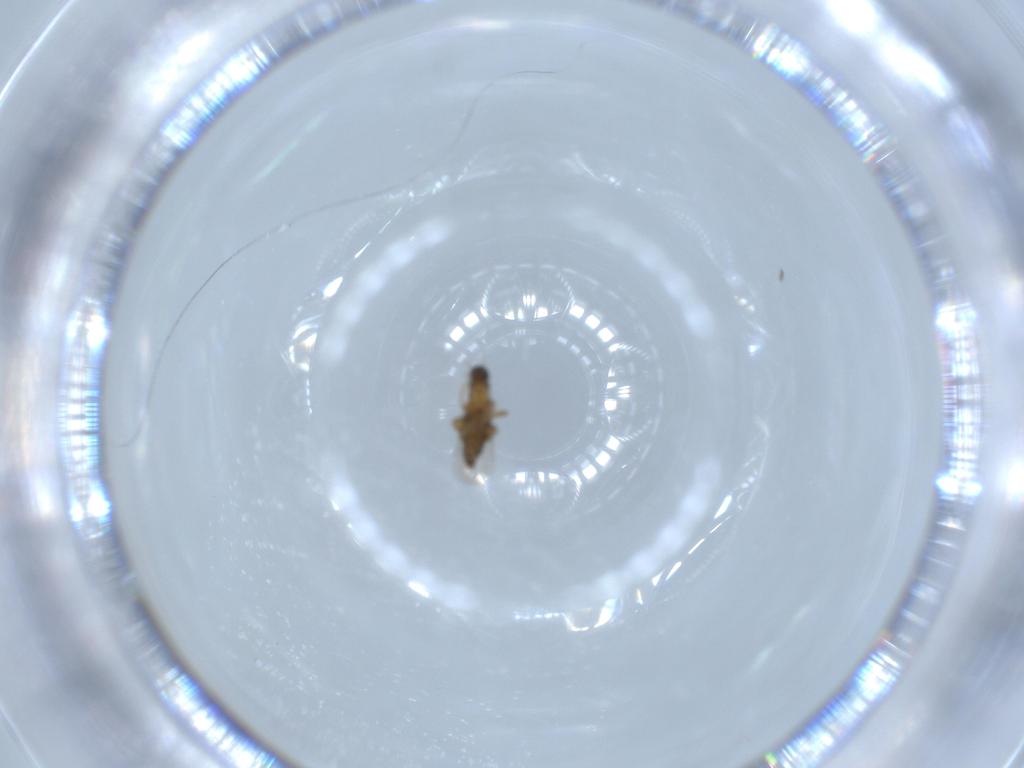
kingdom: Animalia
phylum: Arthropoda
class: Insecta
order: Diptera
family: Phoridae
